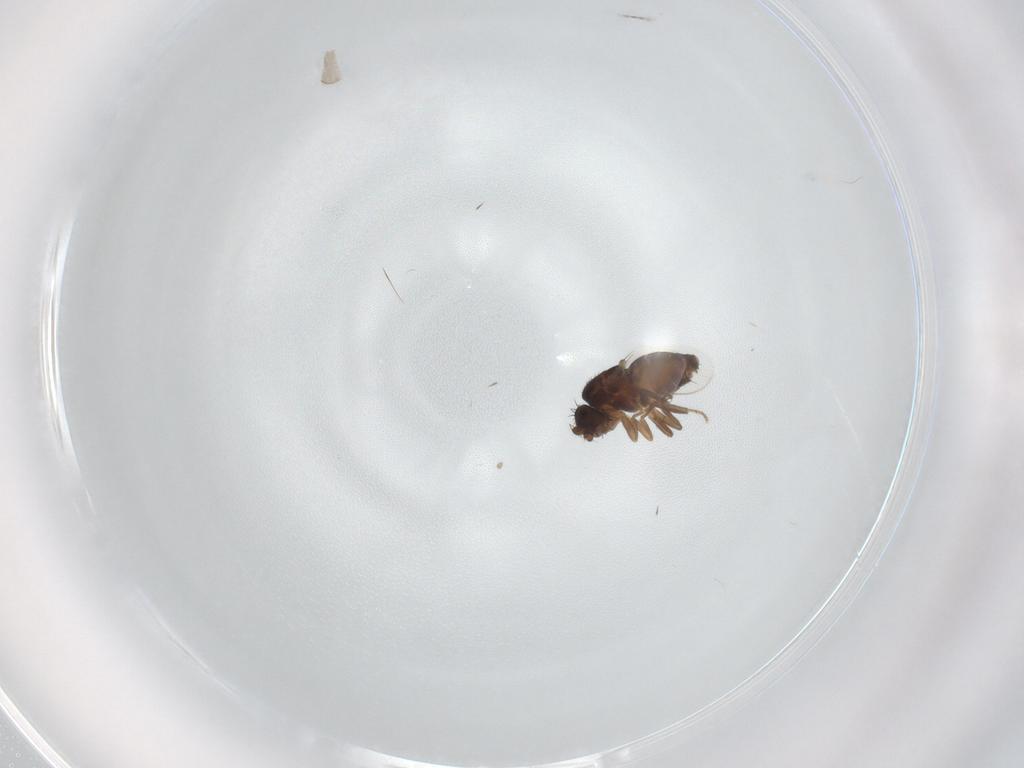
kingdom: Animalia
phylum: Arthropoda
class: Insecta
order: Diptera
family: Sphaeroceridae
